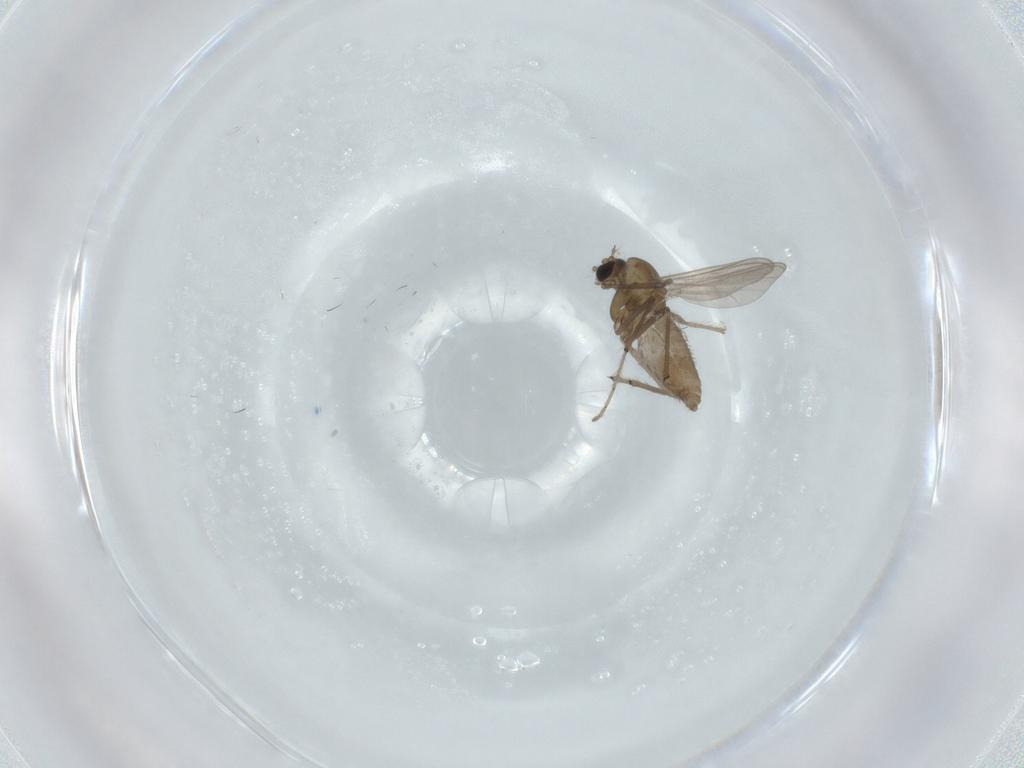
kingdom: Animalia
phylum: Arthropoda
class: Insecta
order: Diptera
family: Chironomidae
